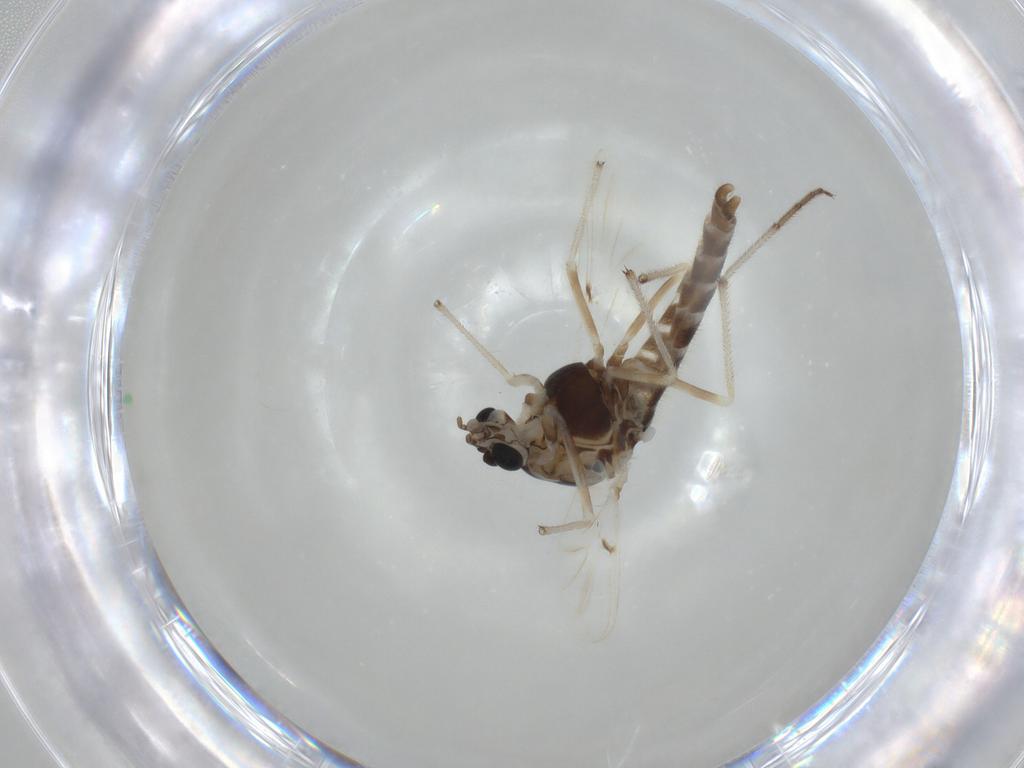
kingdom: Animalia
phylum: Arthropoda
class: Insecta
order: Diptera
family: Chironomidae
